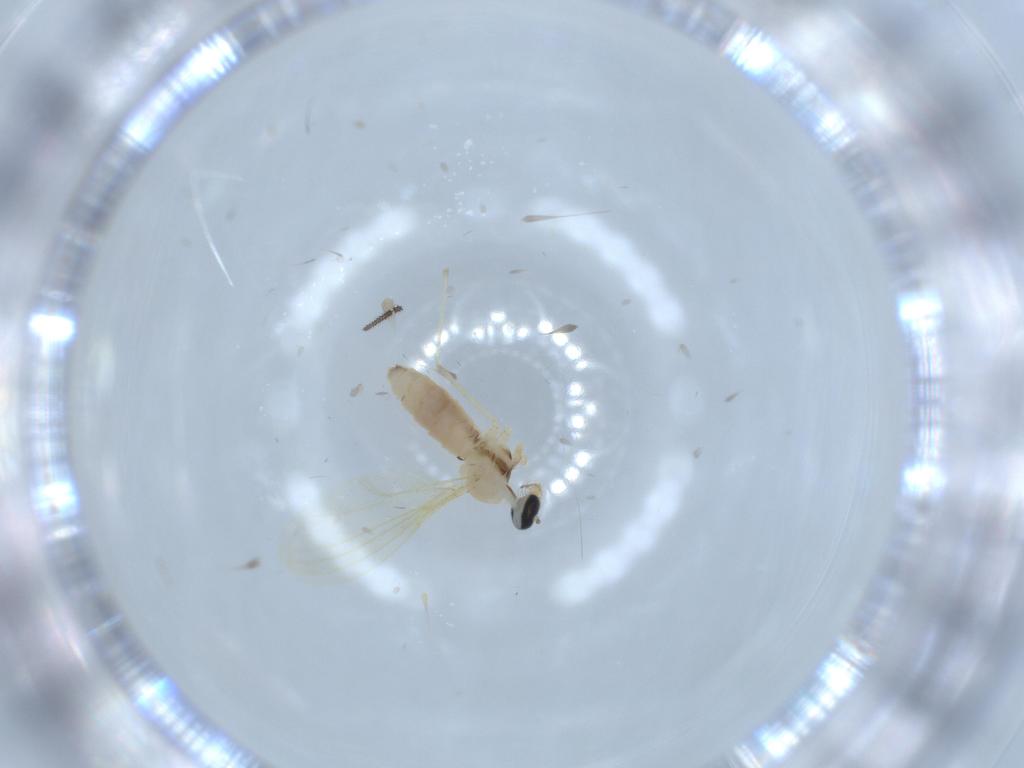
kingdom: Animalia
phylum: Arthropoda
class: Insecta
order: Diptera
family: Cecidomyiidae
